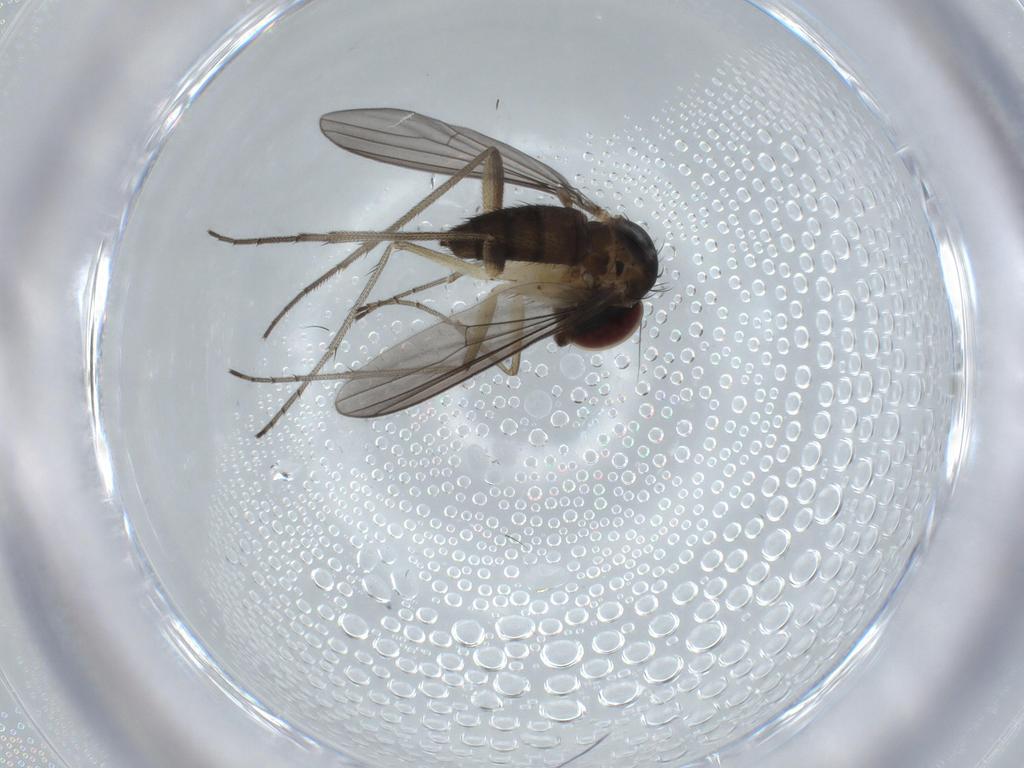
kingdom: Animalia
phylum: Arthropoda
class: Insecta
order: Diptera
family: Dolichopodidae
